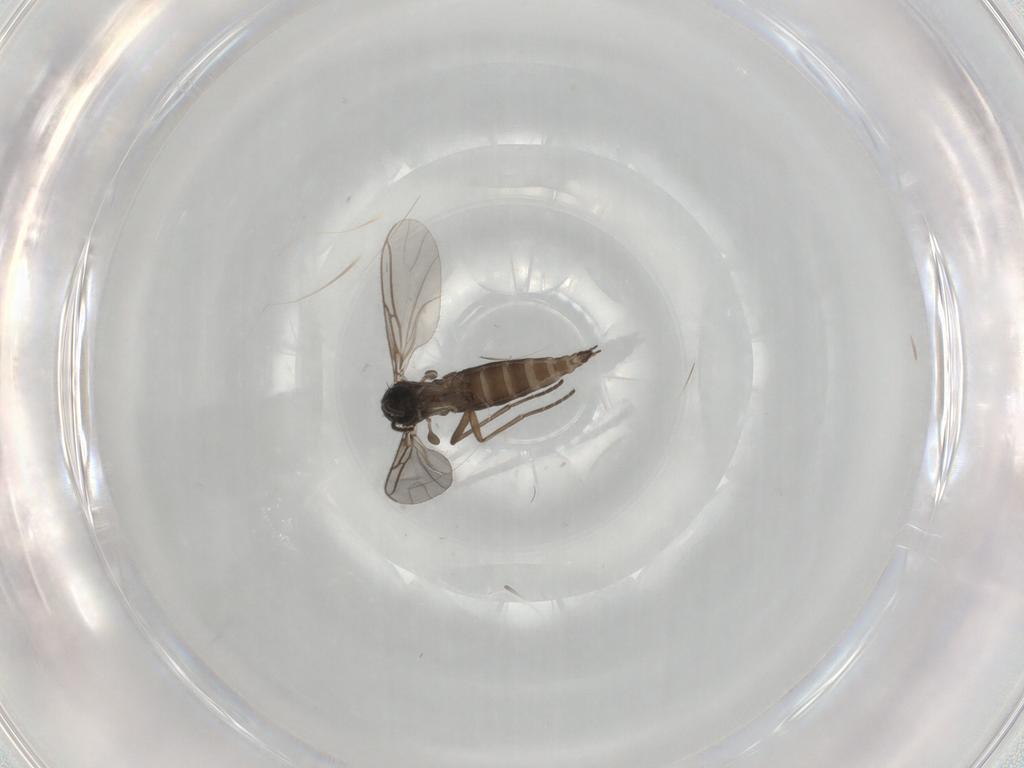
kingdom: Animalia
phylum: Arthropoda
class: Insecta
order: Diptera
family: Sciaridae
